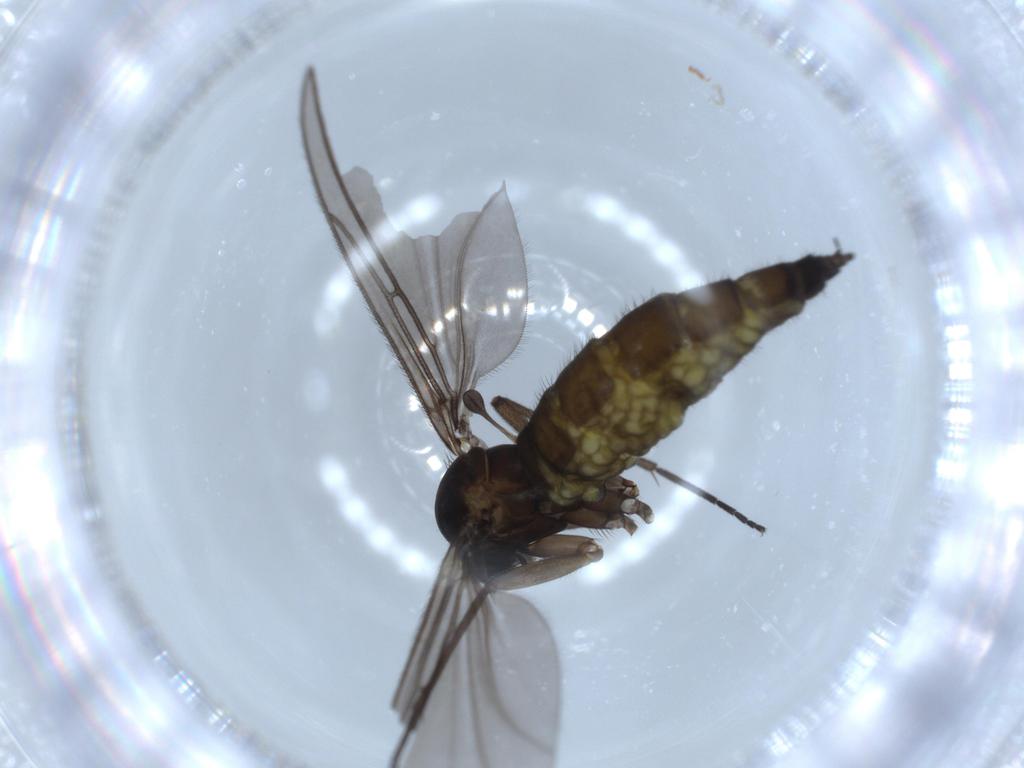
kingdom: Animalia
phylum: Arthropoda
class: Insecta
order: Diptera
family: Sciaridae
